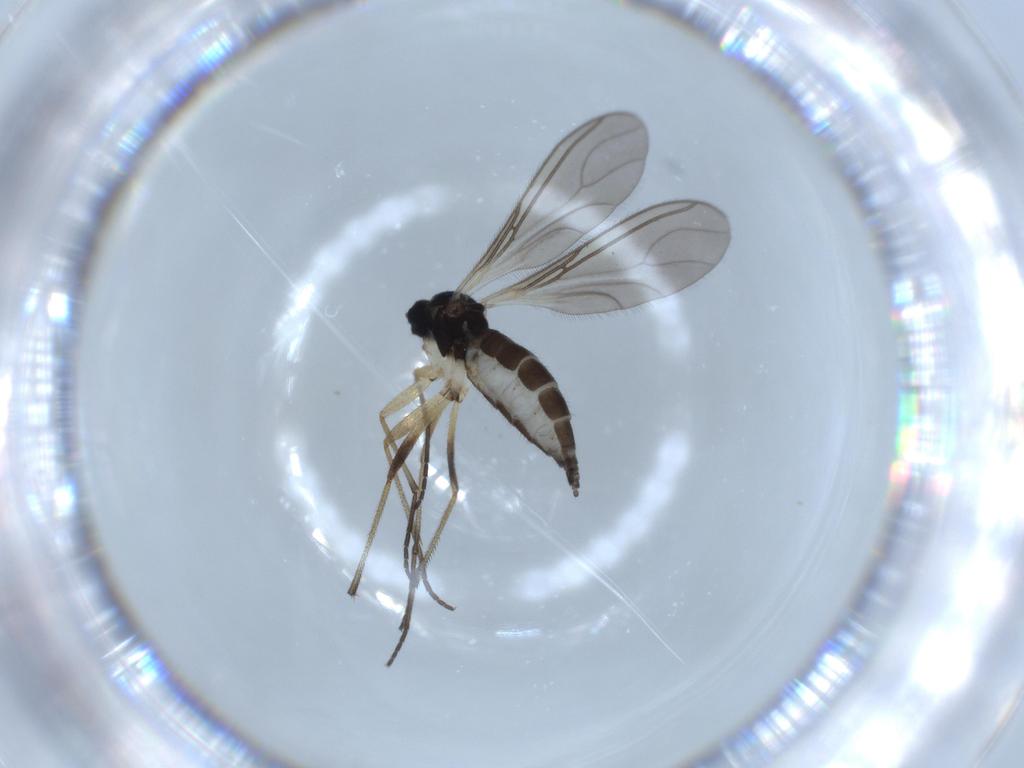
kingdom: Animalia
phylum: Arthropoda
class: Insecta
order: Diptera
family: Sciaridae
